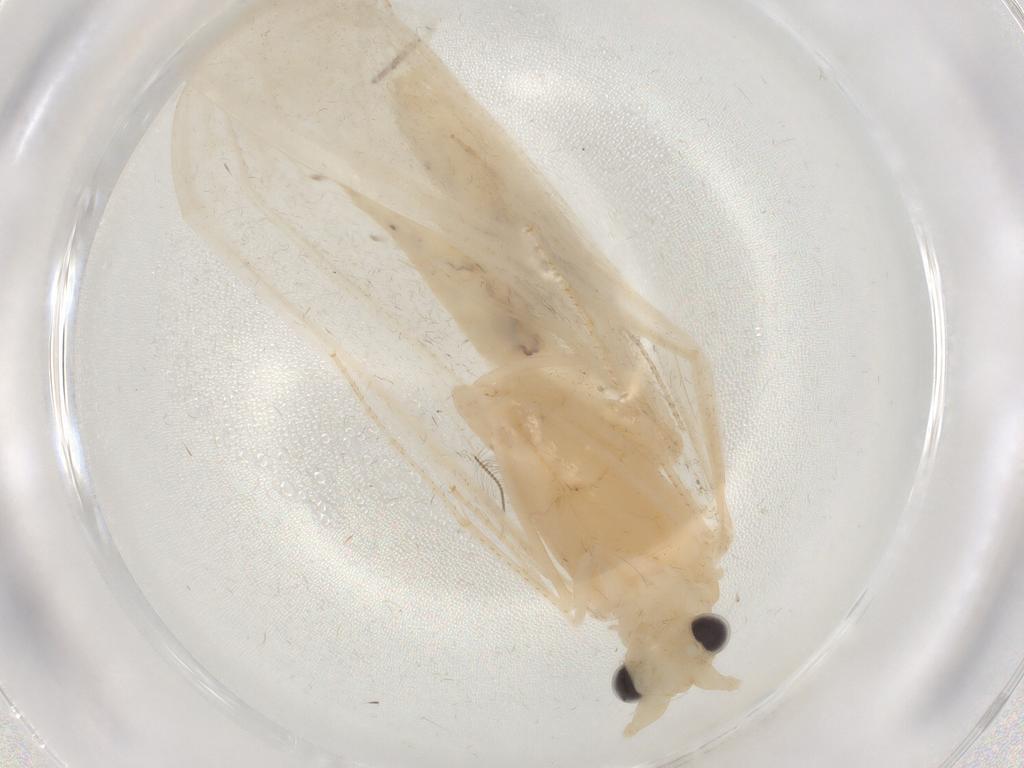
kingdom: Animalia
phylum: Arthropoda
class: Insecta
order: Trichoptera
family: Leptoceridae
